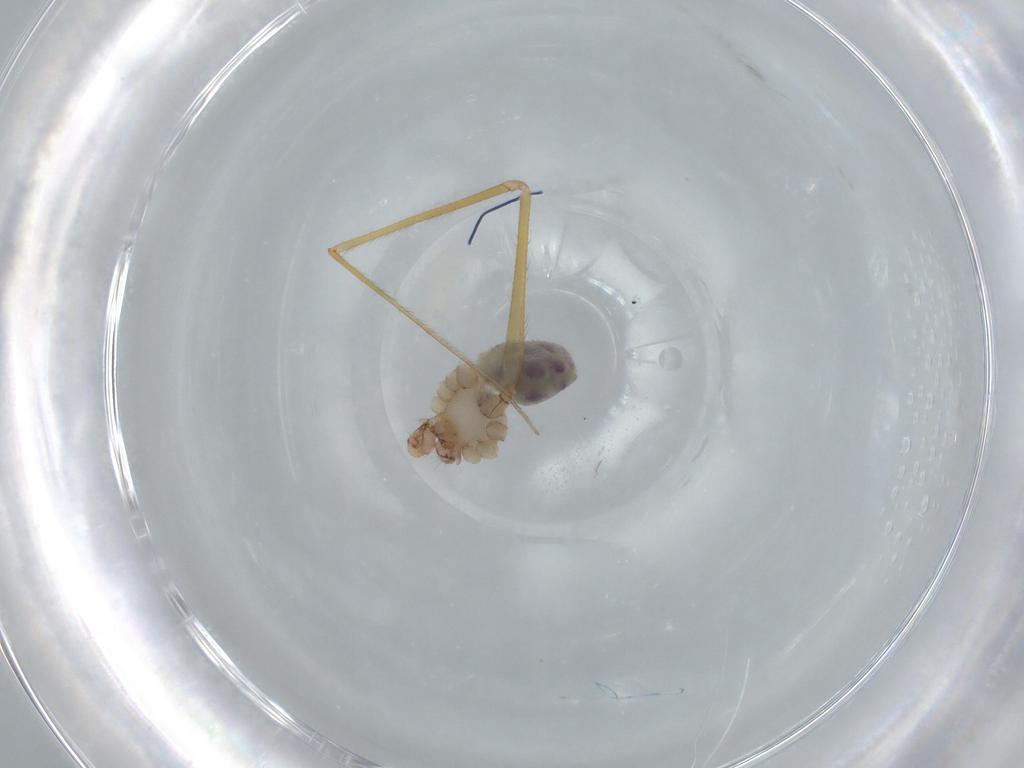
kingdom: Animalia
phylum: Arthropoda
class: Arachnida
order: Araneae
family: Pholcidae
